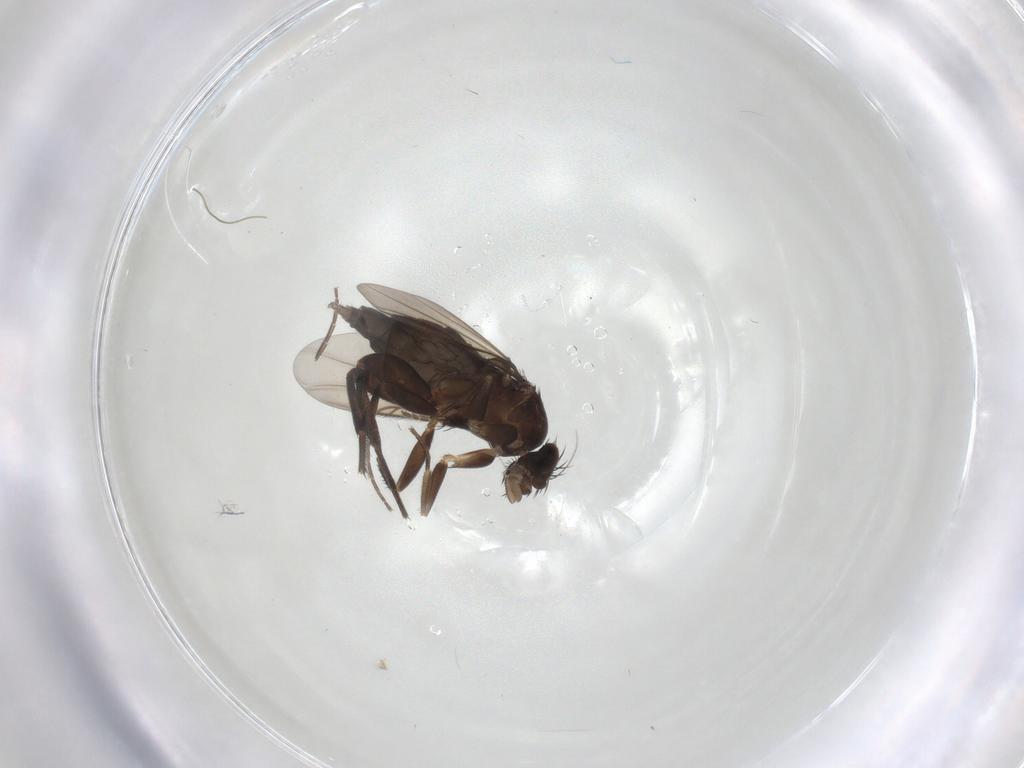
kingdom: Animalia
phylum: Arthropoda
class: Insecta
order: Diptera
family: Phoridae
